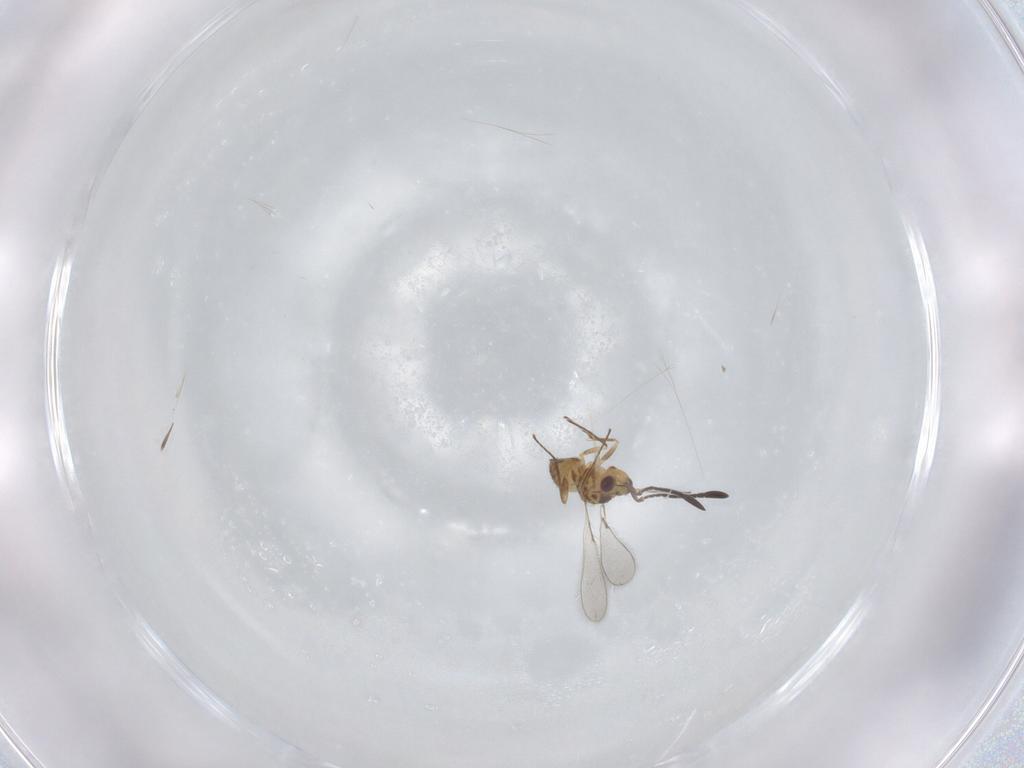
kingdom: Animalia
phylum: Arthropoda
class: Insecta
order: Hymenoptera
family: Mymaridae
